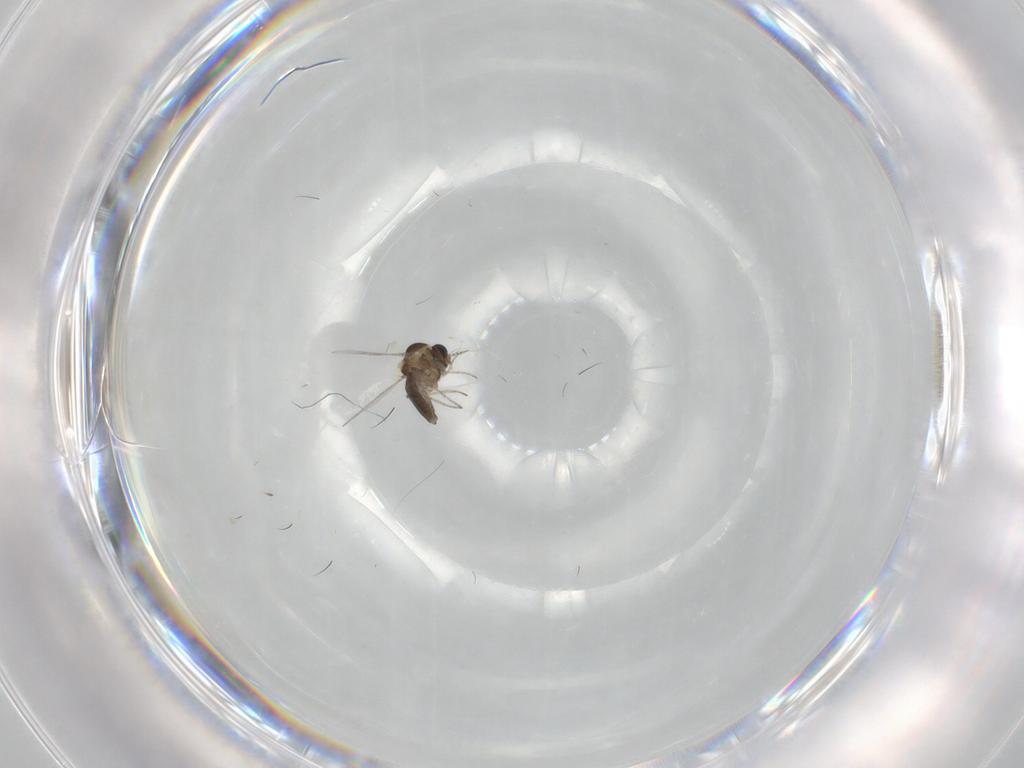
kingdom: Animalia
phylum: Arthropoda
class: Insecta
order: Diptera
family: Ceratopogonidae
